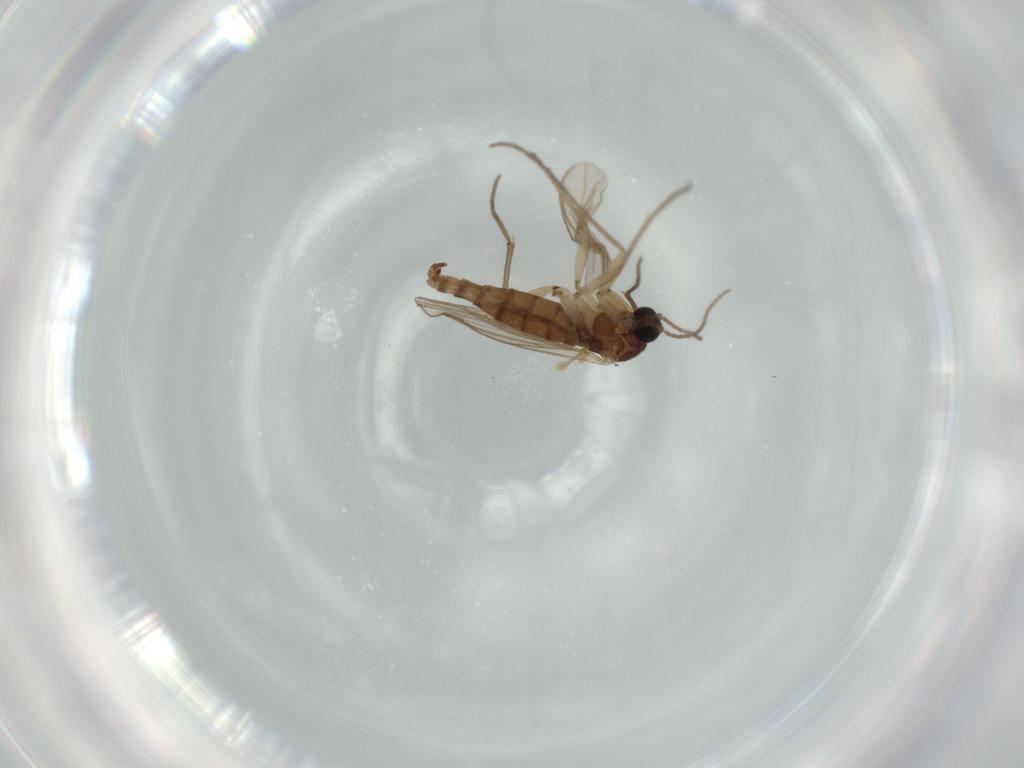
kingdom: Animalia
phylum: Arthropoda
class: Insecta
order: Diptera
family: Sciaridae
